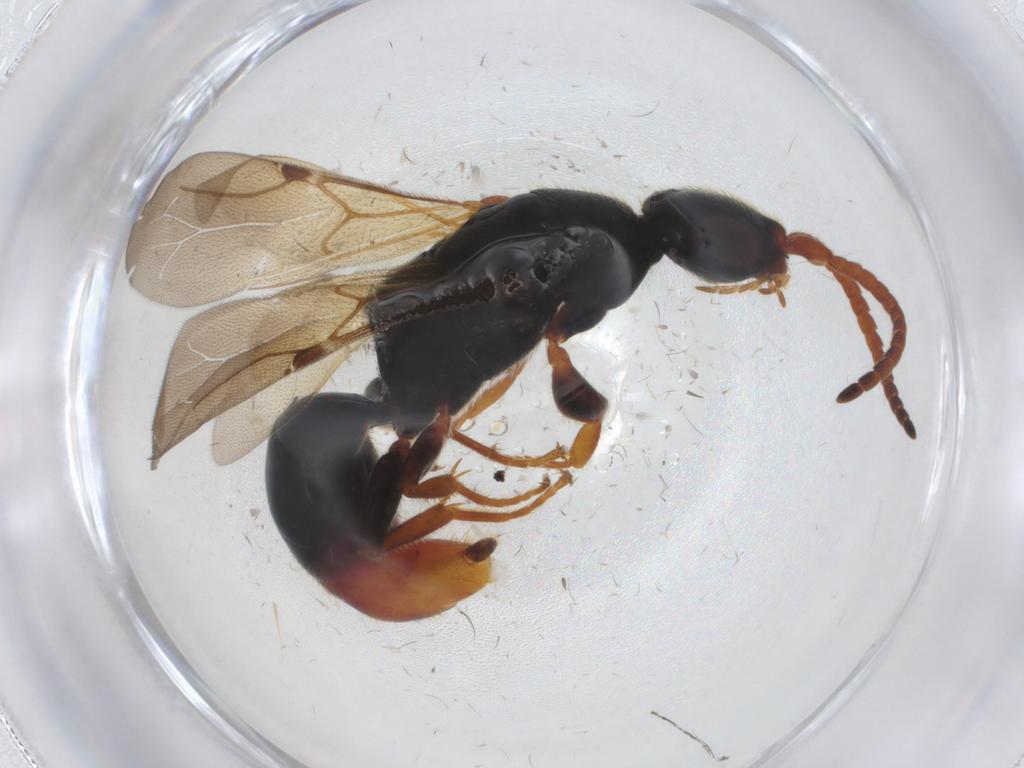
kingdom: Animalia
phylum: Arthropoda
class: Insecta
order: Hymenoptera
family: Bethylidae
